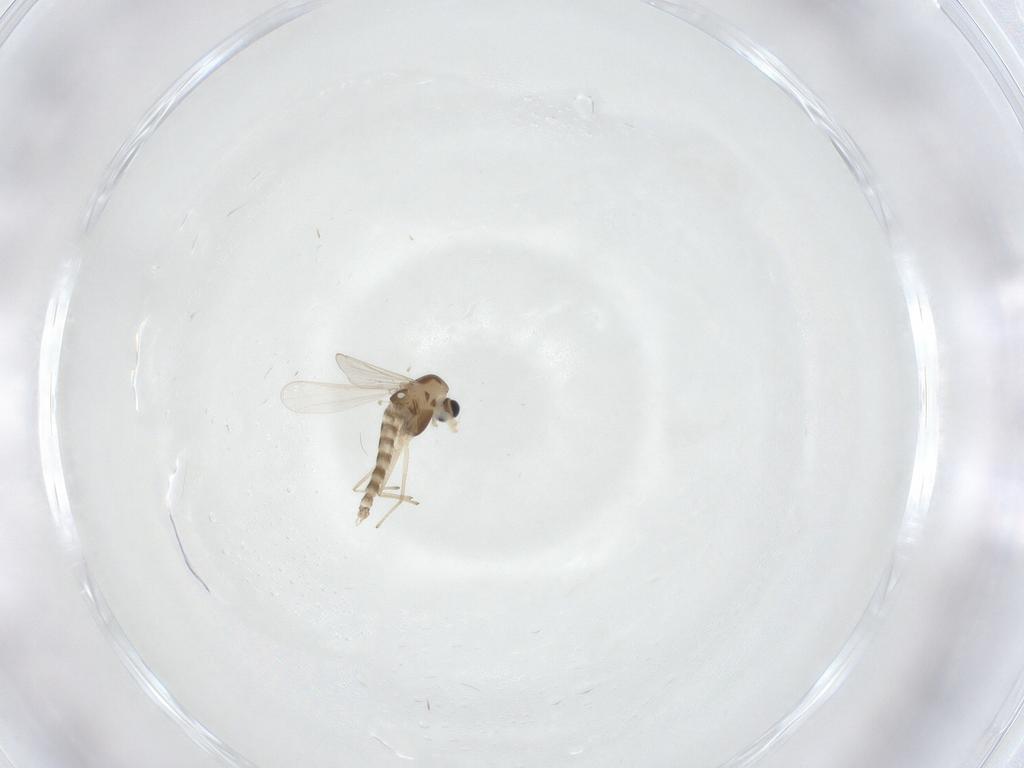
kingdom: Animalia
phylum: Arthropoda
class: Insecta
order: Diptera
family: Chironomidae
